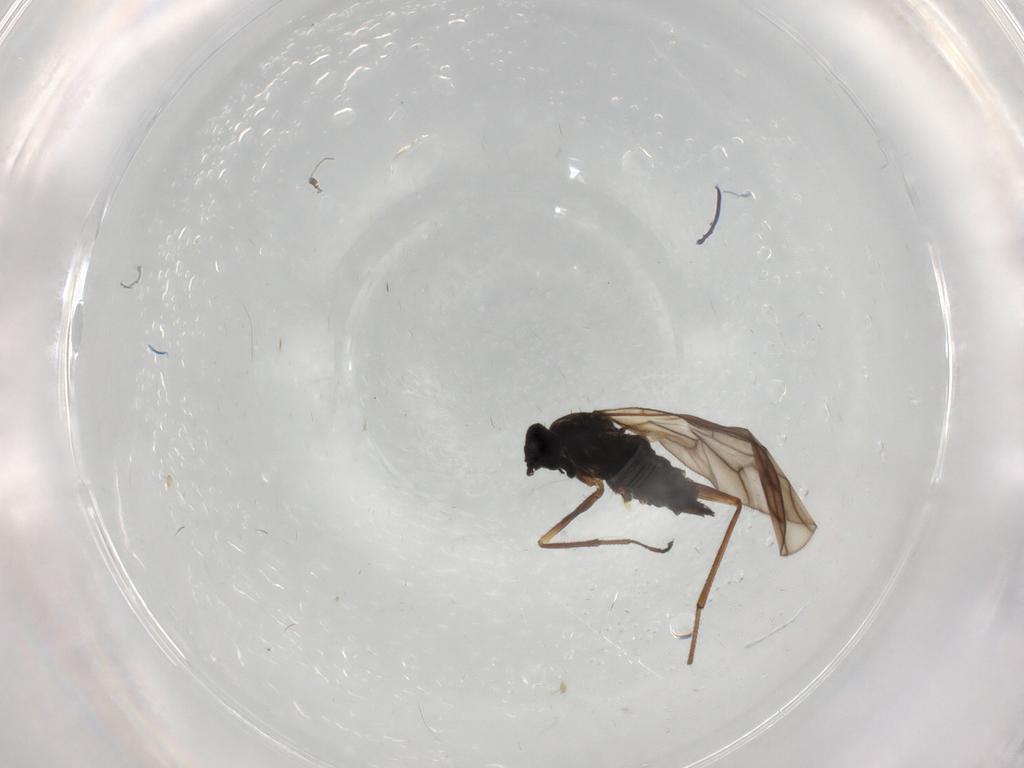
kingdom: Animalia
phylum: Arthropoda
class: Insecta
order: Diptera
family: Empididae
